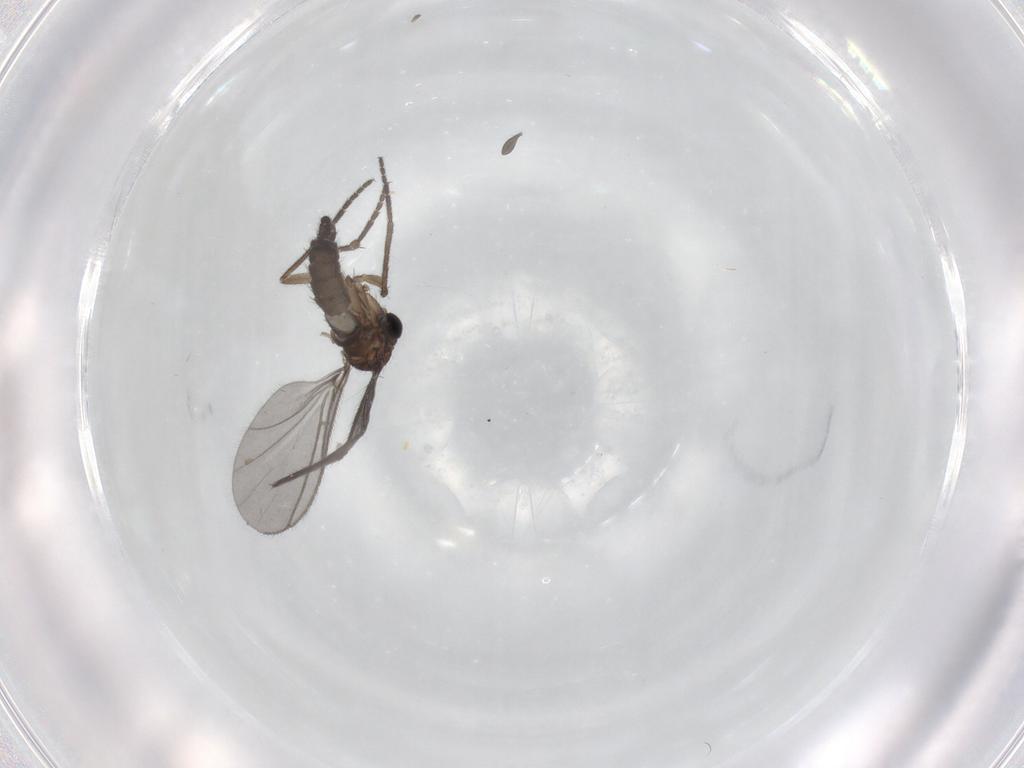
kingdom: Animalia
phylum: Arthropoda
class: Insecta
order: Diptera
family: Sciaridae
